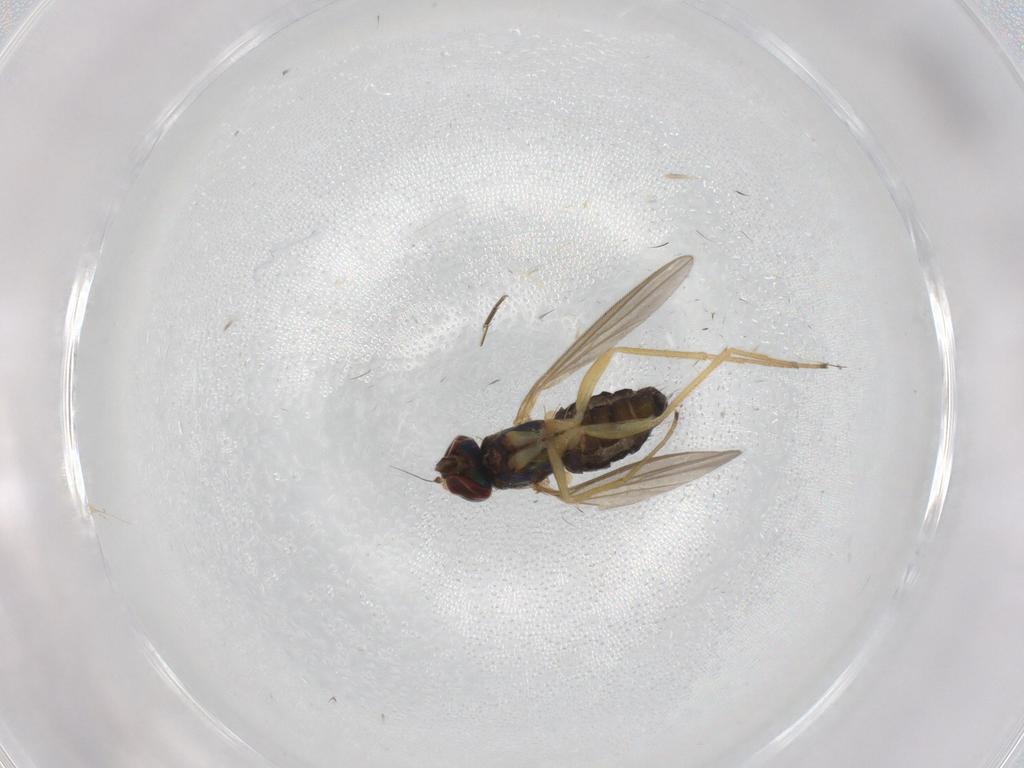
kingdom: Animalia
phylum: Arthropoda
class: Insecta
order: Diptera
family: Dolichopodidae
